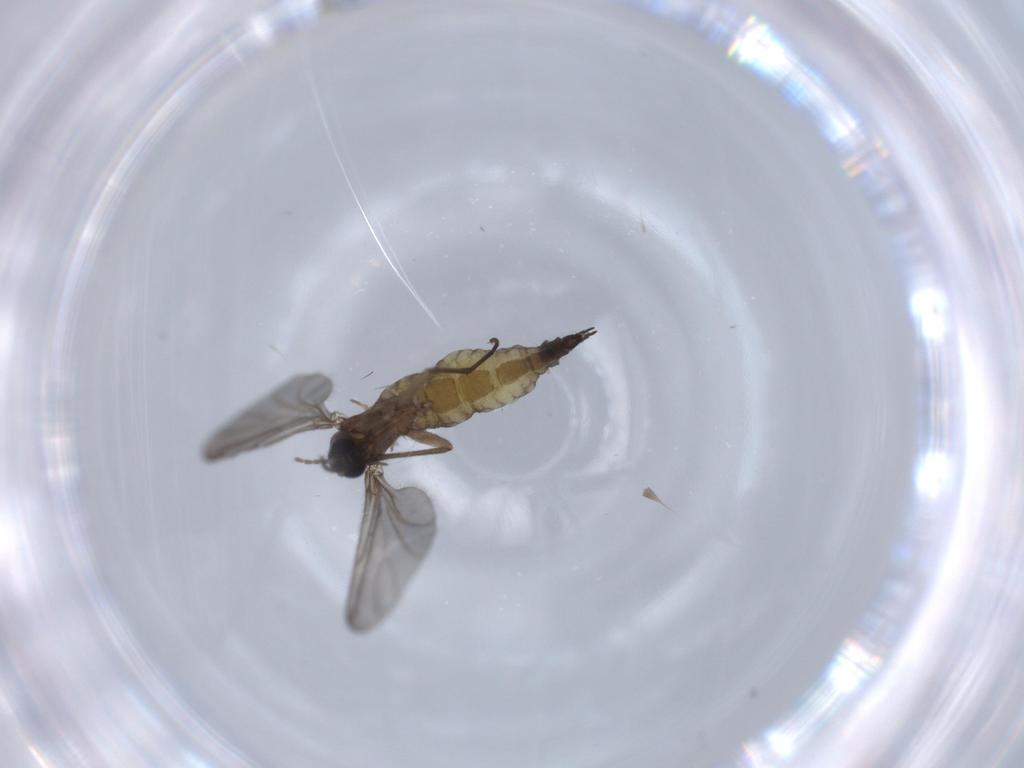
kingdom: Animalia
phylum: Arthropoda
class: Insecta
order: Diptera
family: Sciaridae
